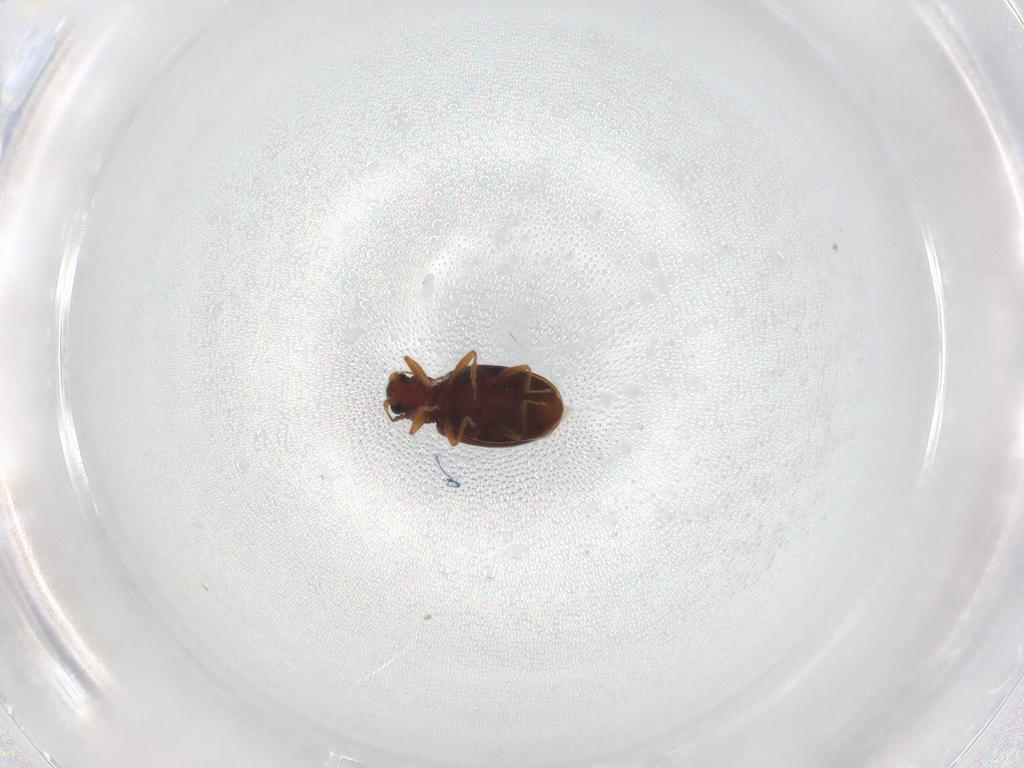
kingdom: Animalia
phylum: Arthropoda
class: Insecta
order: Coleoptera
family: Latridiidae
